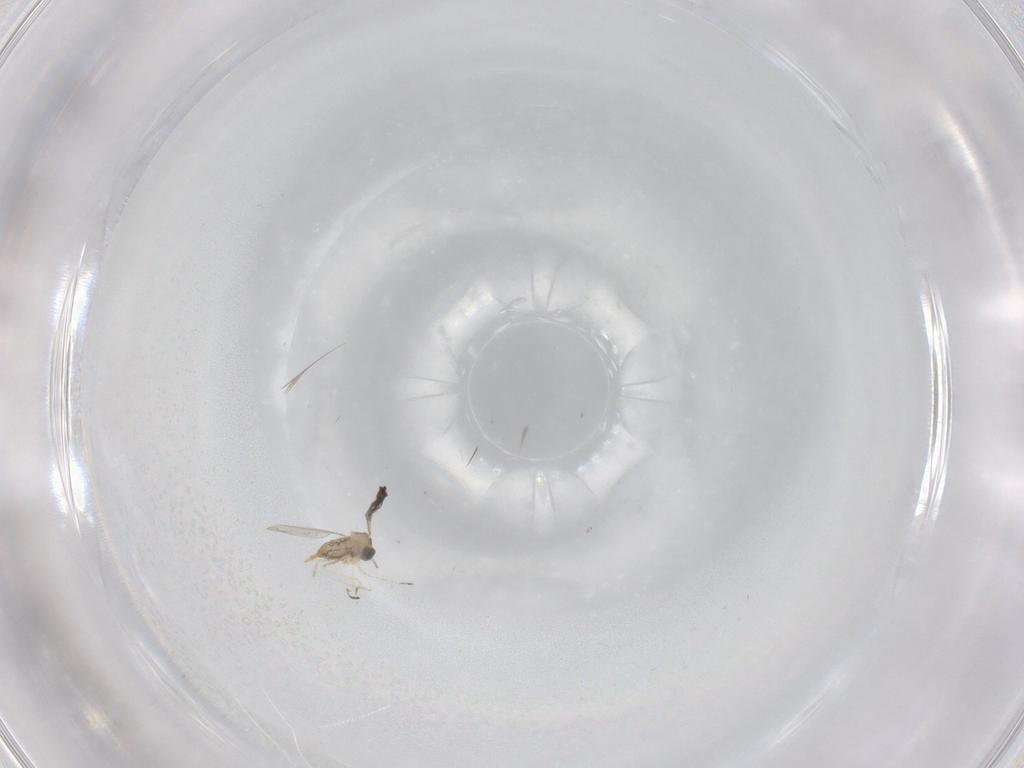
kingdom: Animalia
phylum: Arthropoda
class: Insecta
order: Diptera
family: Cecidomyiidae
